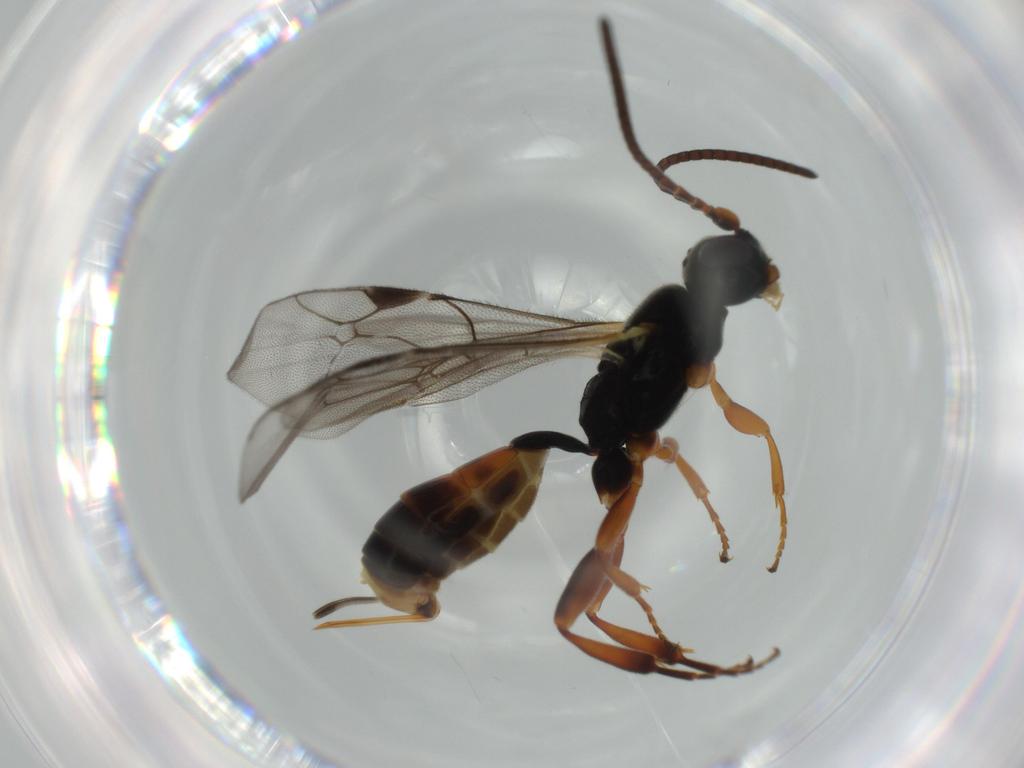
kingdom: Animalia
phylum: Arthropoda
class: Insecta
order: Hymenoptera
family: Ichneumonidae
